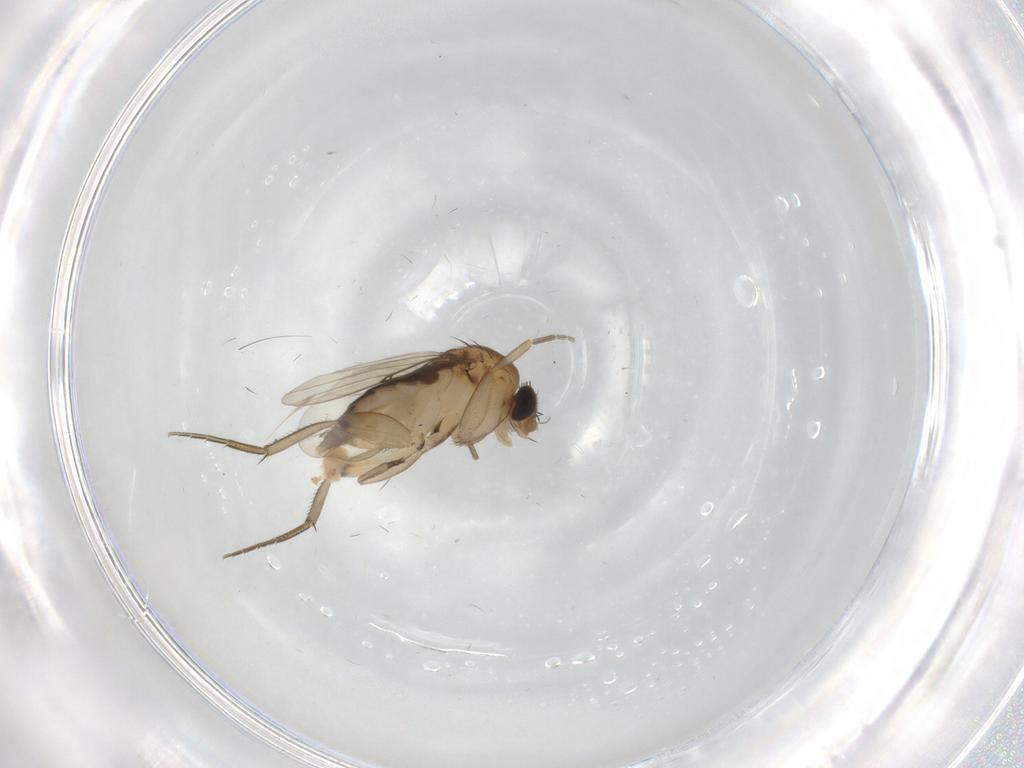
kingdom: Animalia
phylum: Arthropoda
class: Insecta
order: Diptera
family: Phoridae
